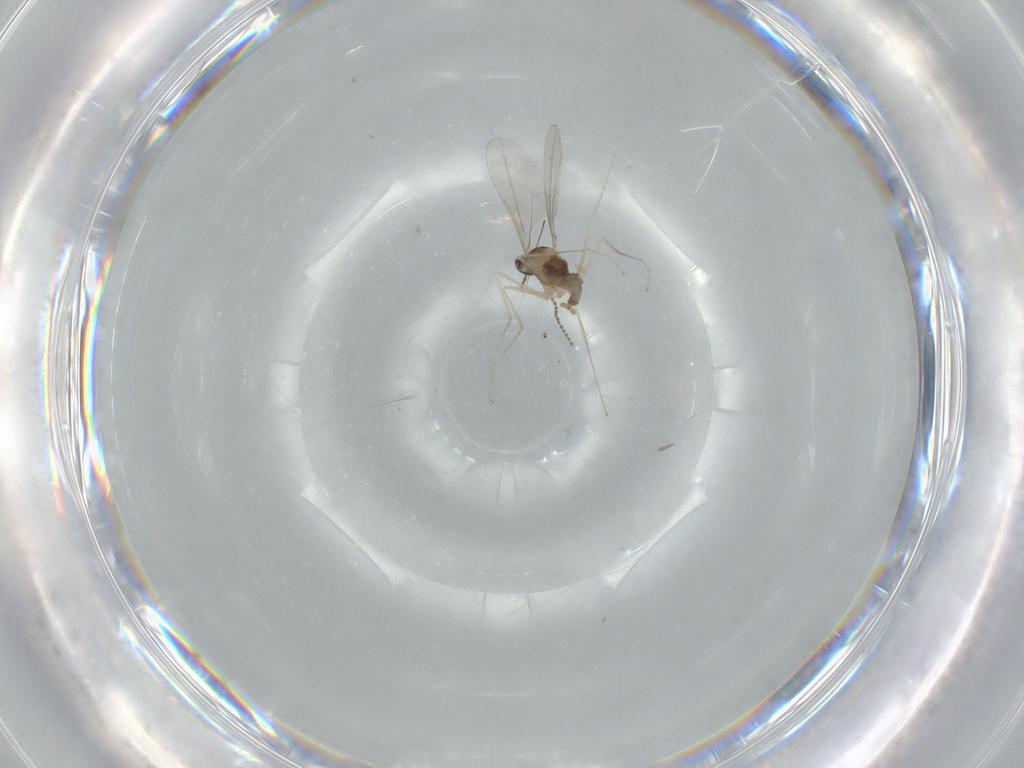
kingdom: Animalia
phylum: Arthropoda
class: Insecta
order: Diptera
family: Cecidomyiidae
